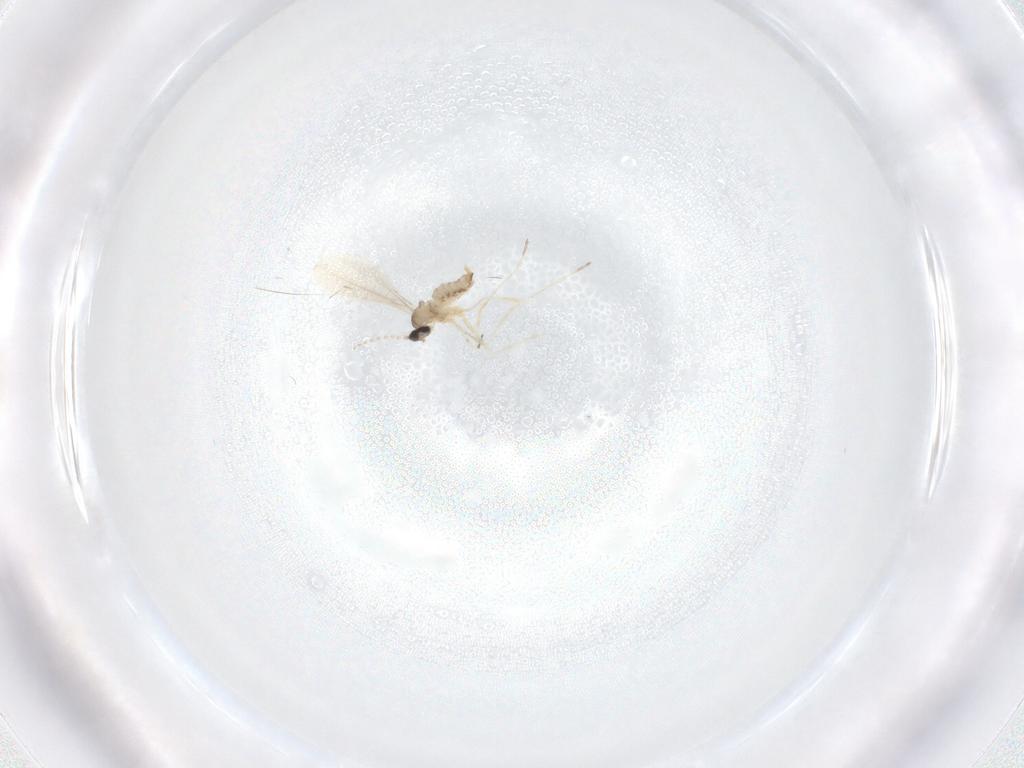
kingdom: Animalia
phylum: Arthropoda
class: Insecta
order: Diptera
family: Cecidomyiidae
